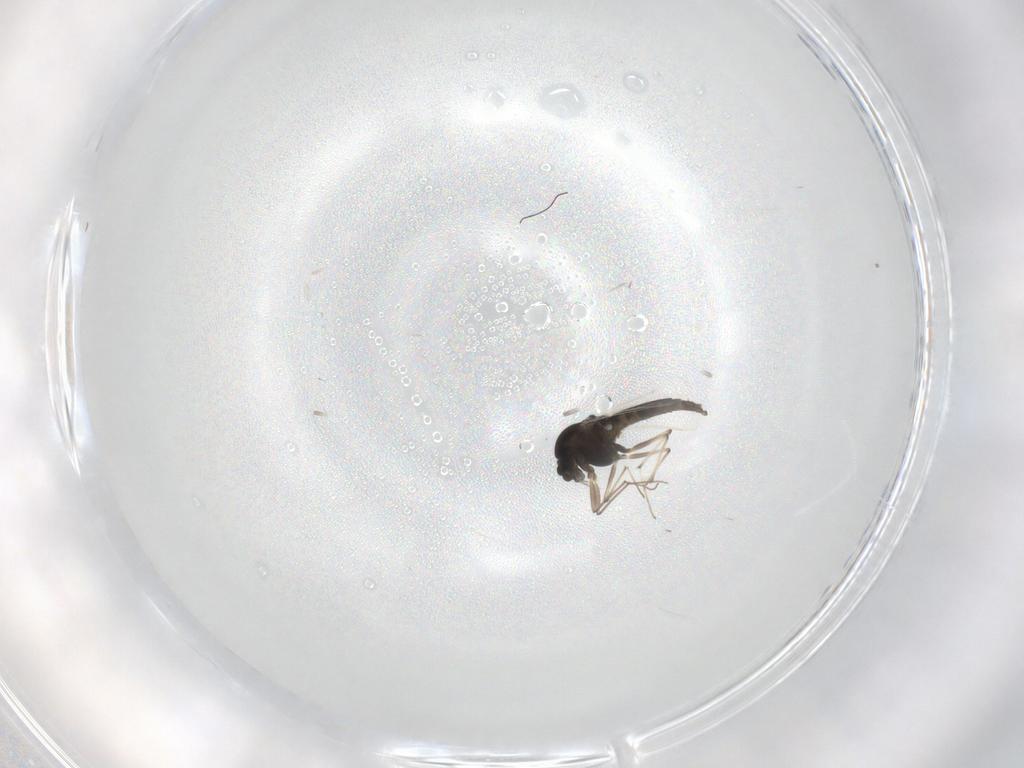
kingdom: Animalia
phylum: Arthropoda
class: Insecta
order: Diptera
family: Chironomidae
